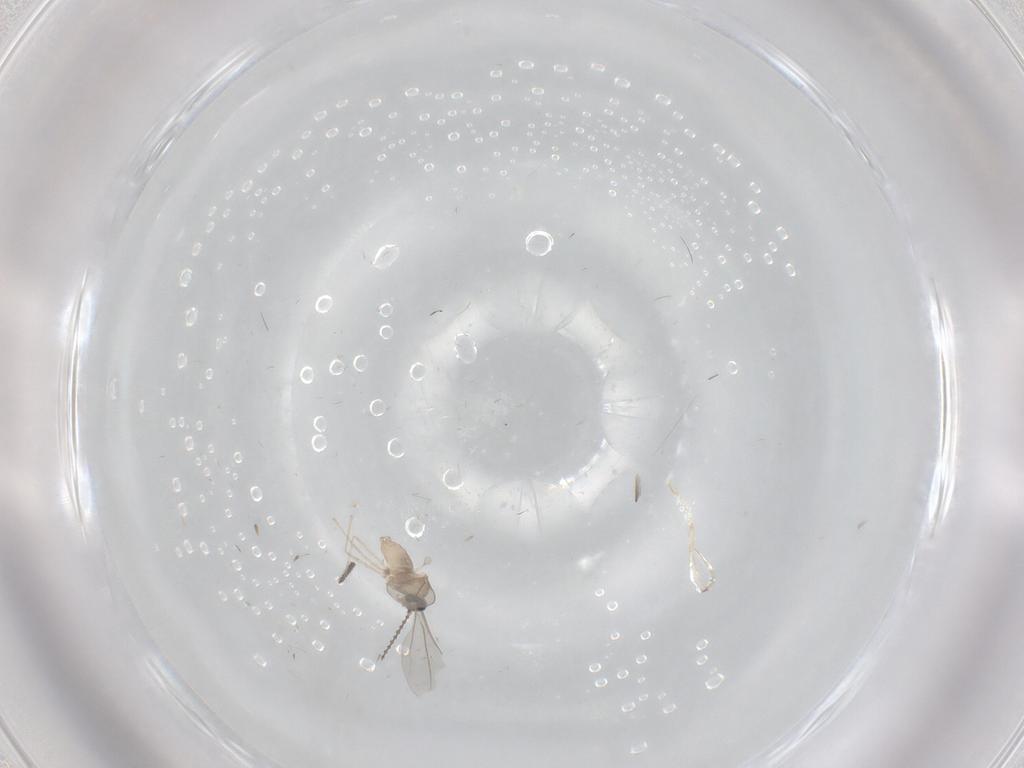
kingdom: Animalia
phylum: Arthropoda
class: Insecta
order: Diptera
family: Sciaridae
